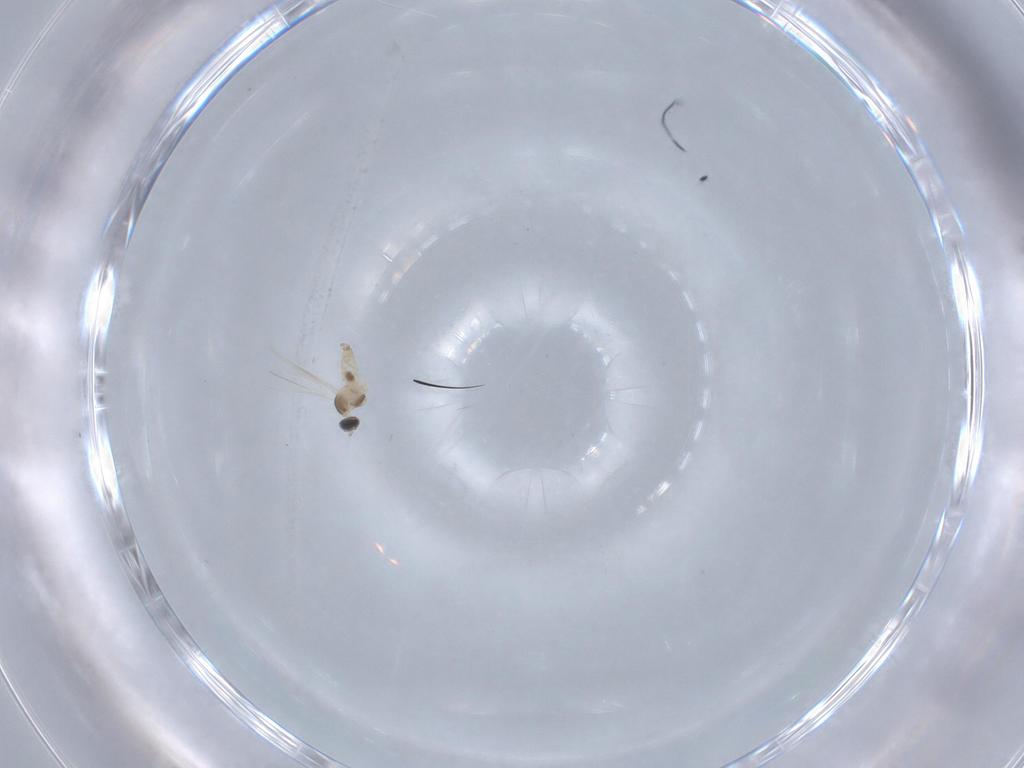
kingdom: Animalia
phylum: Arthropoda
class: Insecta
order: Diptera
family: Cecidomyiidae
